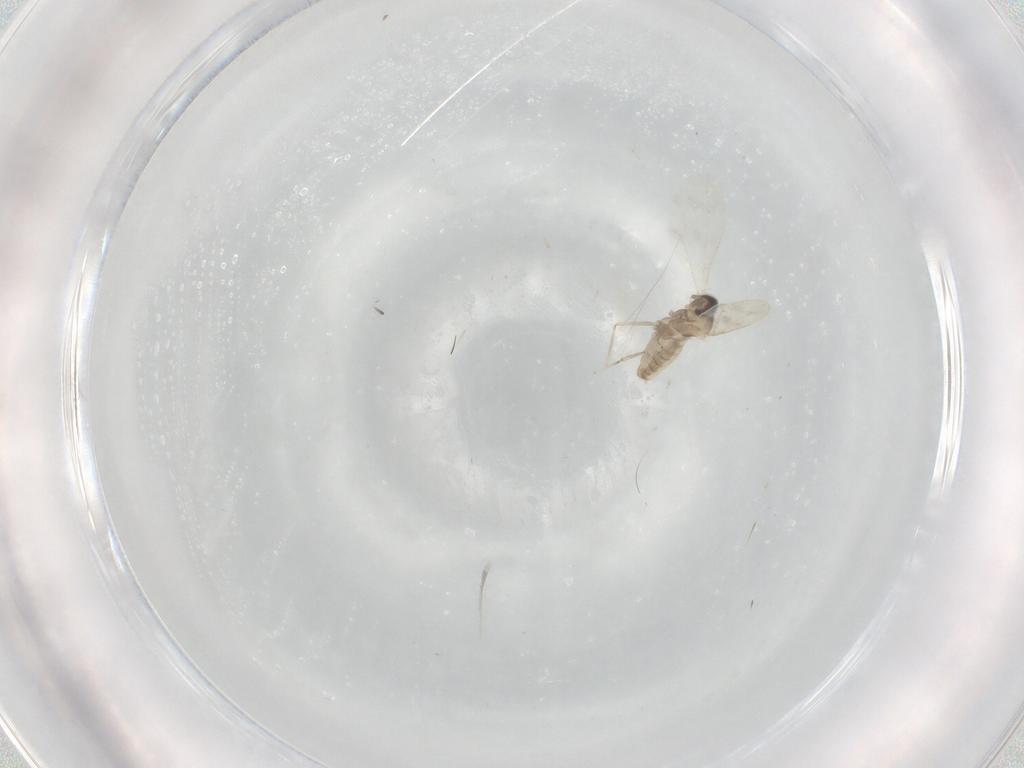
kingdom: Animalia
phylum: Arthropoda
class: Insecta
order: Diptera
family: Cecidomyiidae
